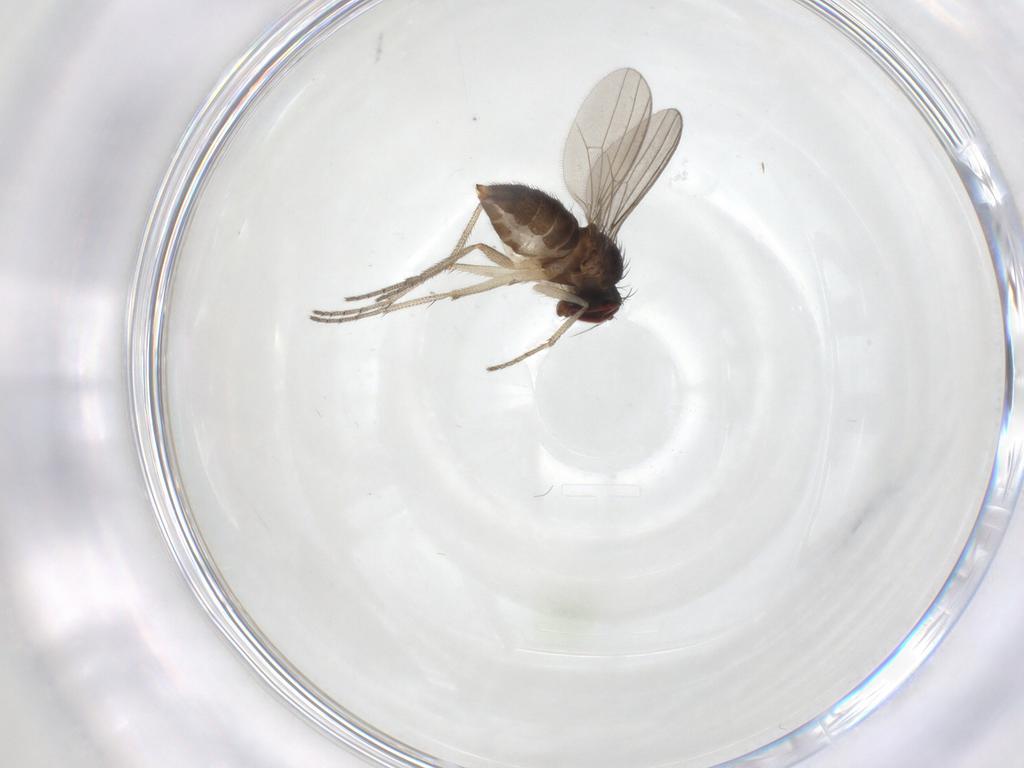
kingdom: Animalia
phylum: Arthropoda
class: Insecta
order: Diptera
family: Dolichopodidae
